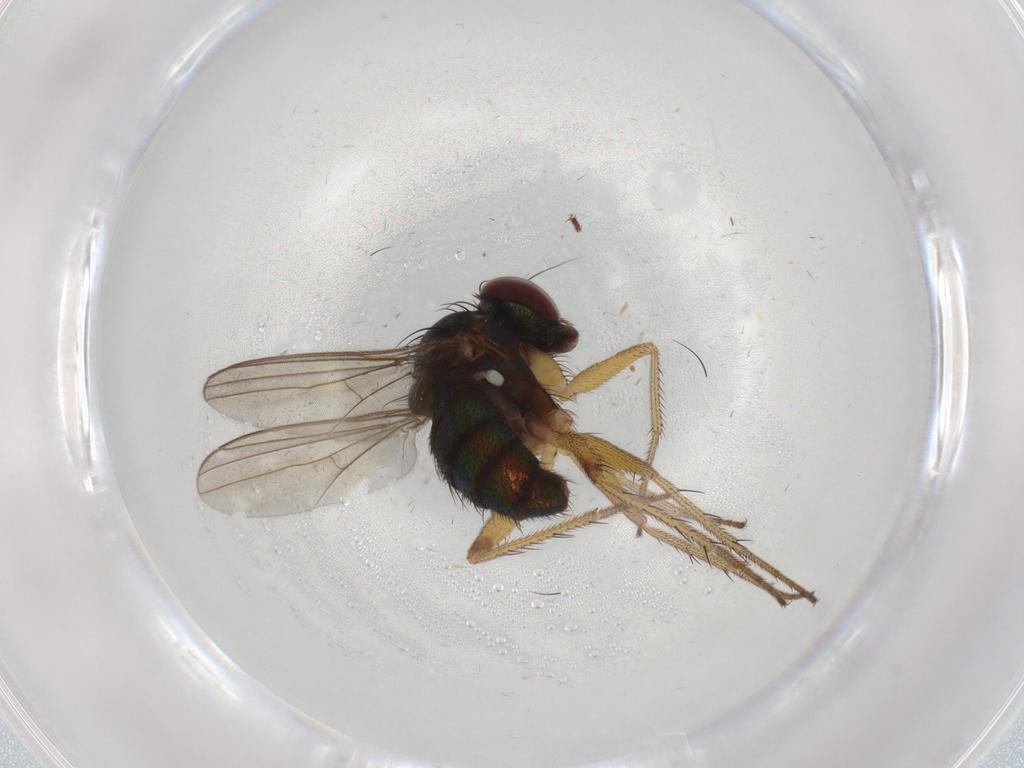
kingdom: Animalia
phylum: Arthropoda
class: Insecta
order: Diptera
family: Dolichopodidae
